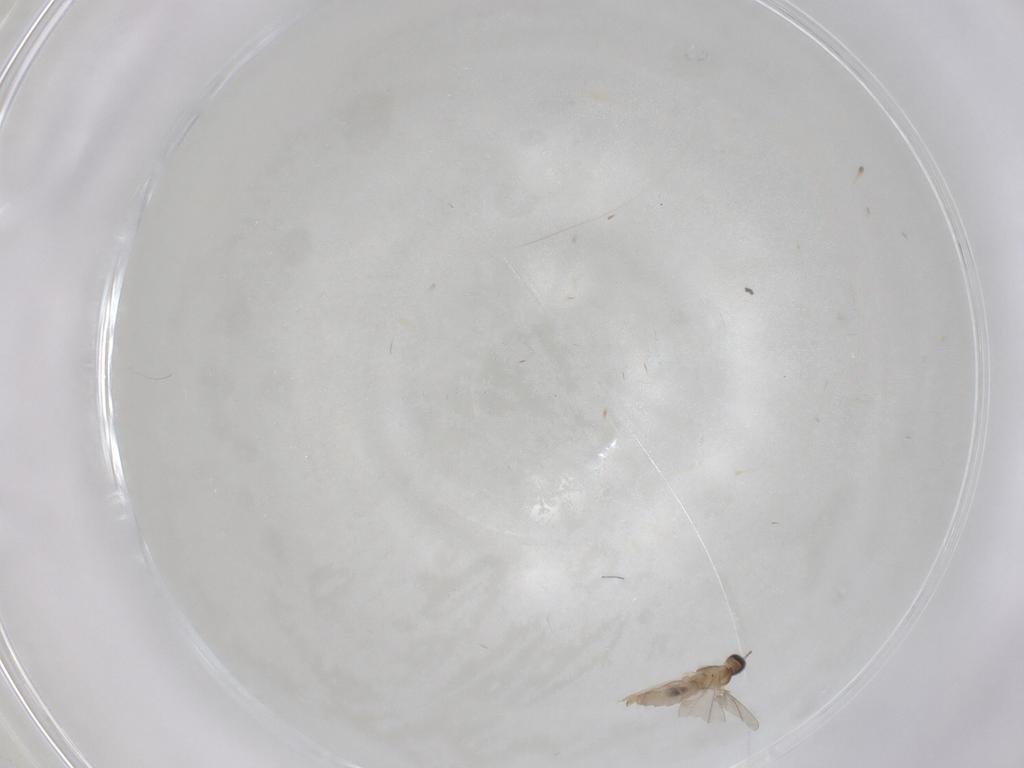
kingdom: Animalia
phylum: Arthropoda
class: Insecta
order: Diptera
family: Cecidomyiidae
